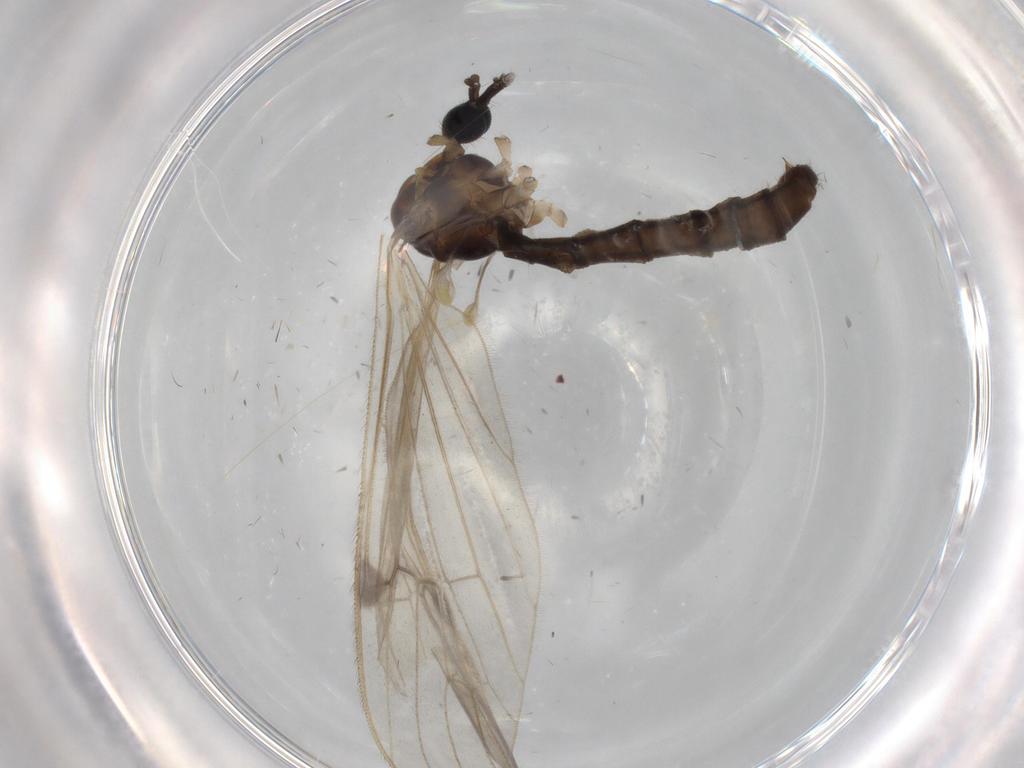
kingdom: Animalia
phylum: Arthropoda
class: Insecta
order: Diptera
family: Limoniidae
